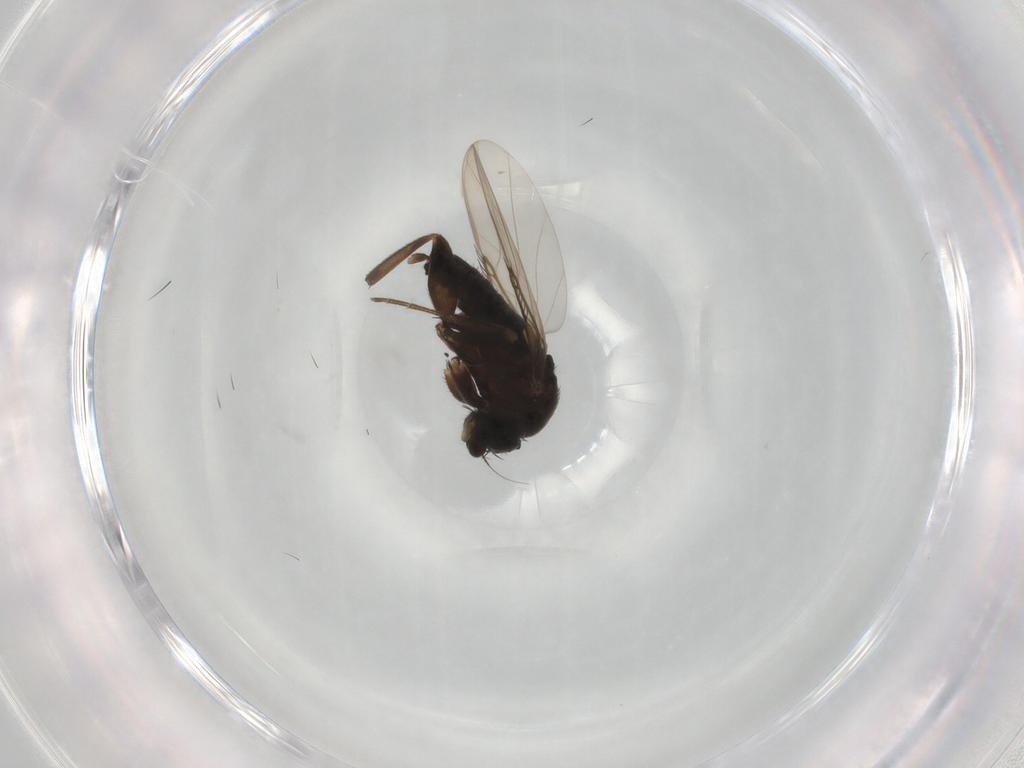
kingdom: Animalia
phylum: Arthropoda
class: Insecta
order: Diptera
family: Phoridae
